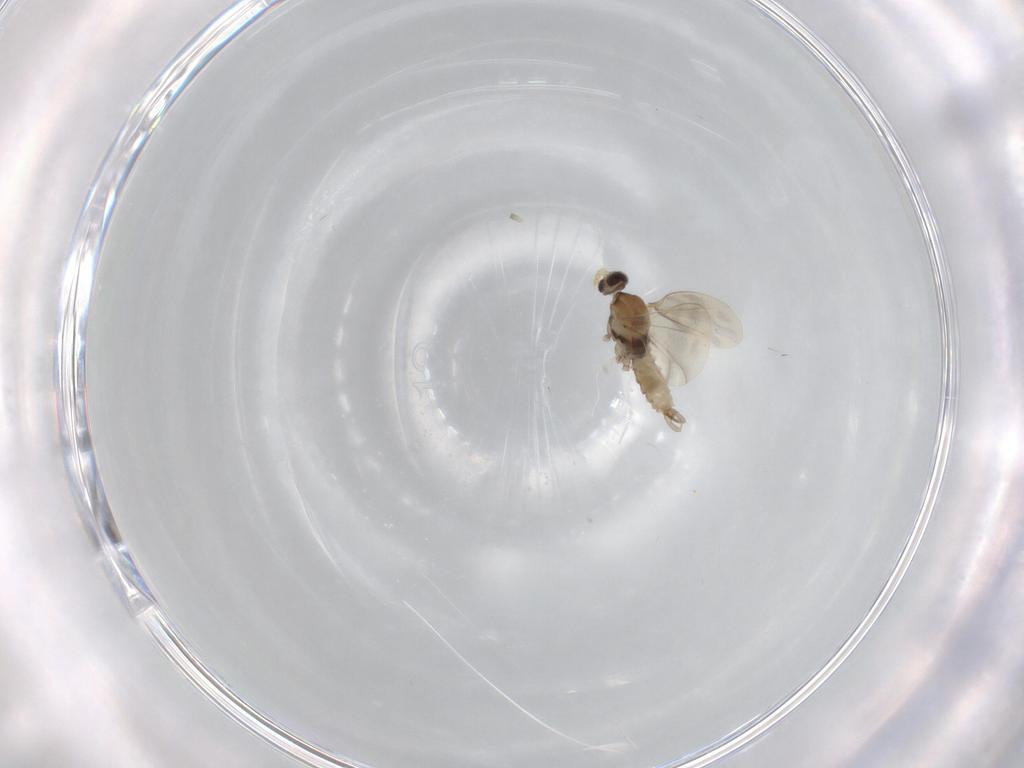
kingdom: Animalia
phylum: Arthropoda
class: Insecta
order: Diptera
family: Cecidomyiidae
